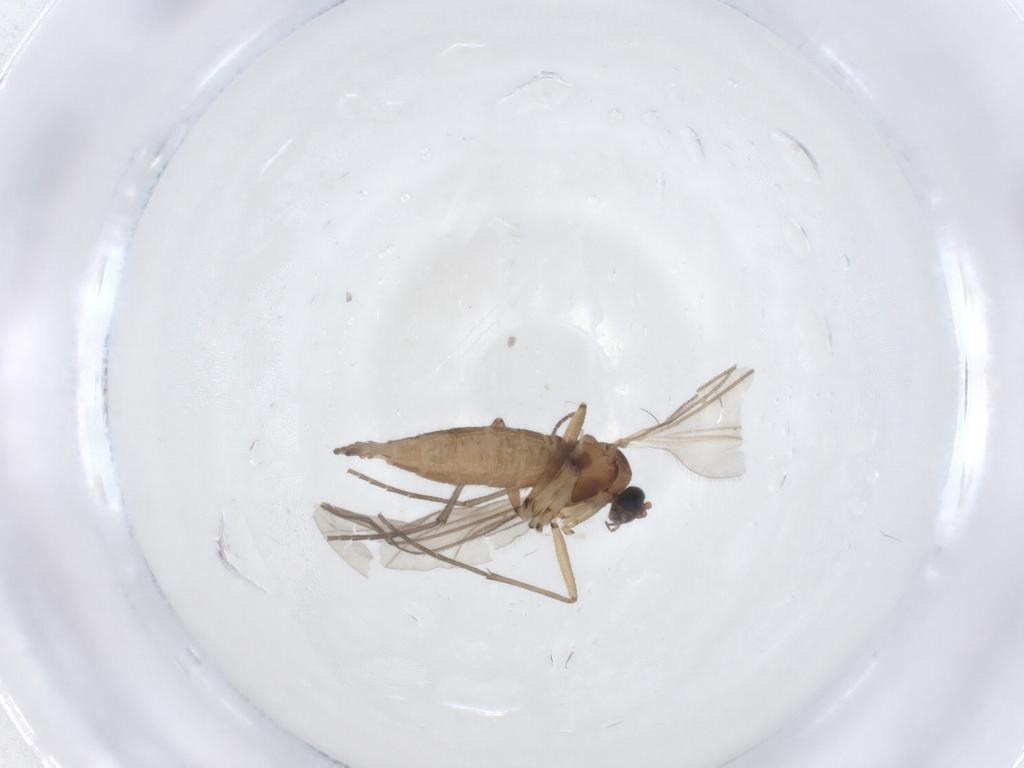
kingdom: Animalia
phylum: Arthropoda
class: Insecta
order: Diptera
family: Sciaridae
